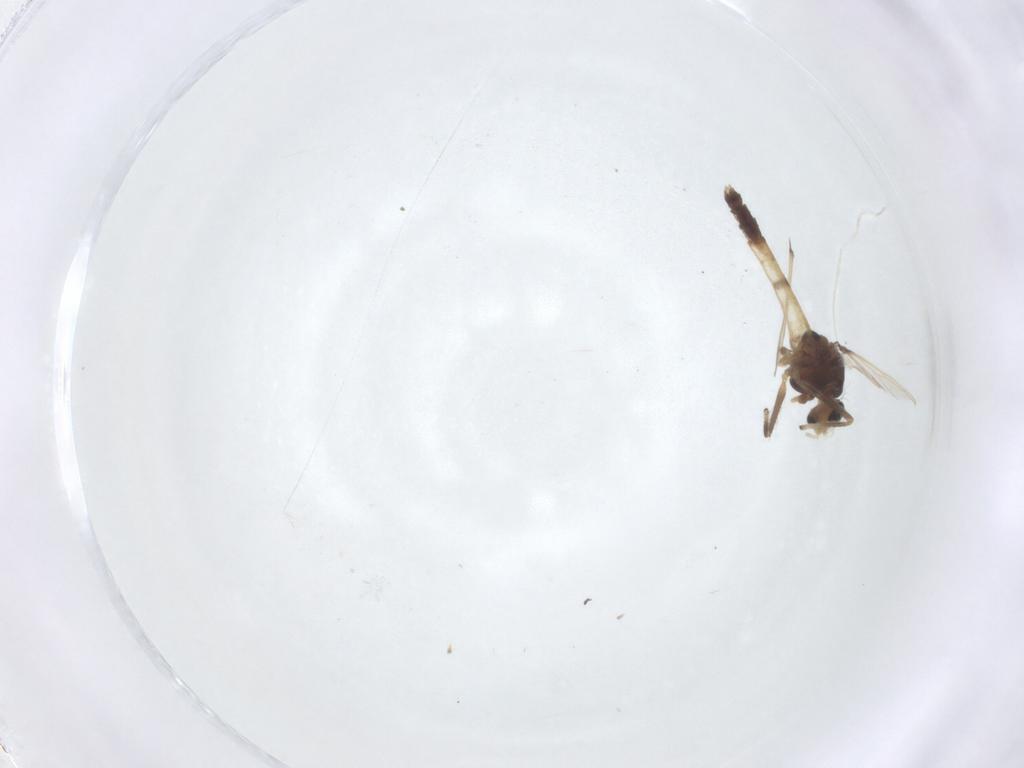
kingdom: Animalia
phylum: Arthropoda
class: Insecta
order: Diptera
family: Chironomidae
